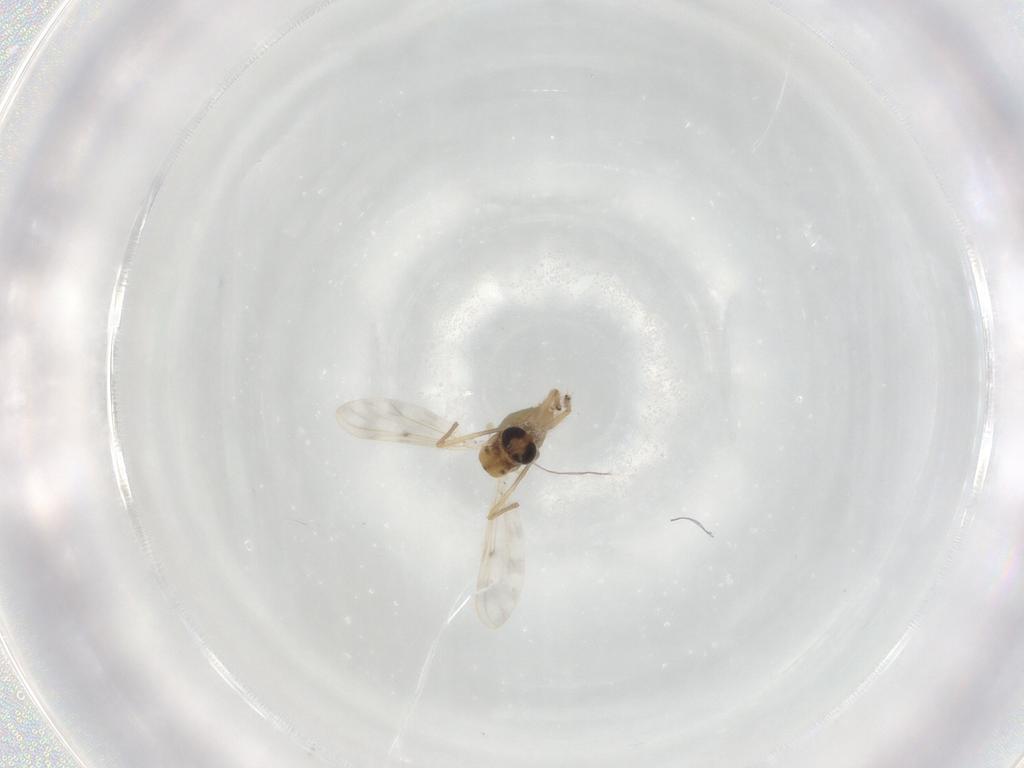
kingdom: Animalia
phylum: Arthropoda
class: Insecta
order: Diptera
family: Chironomidae
